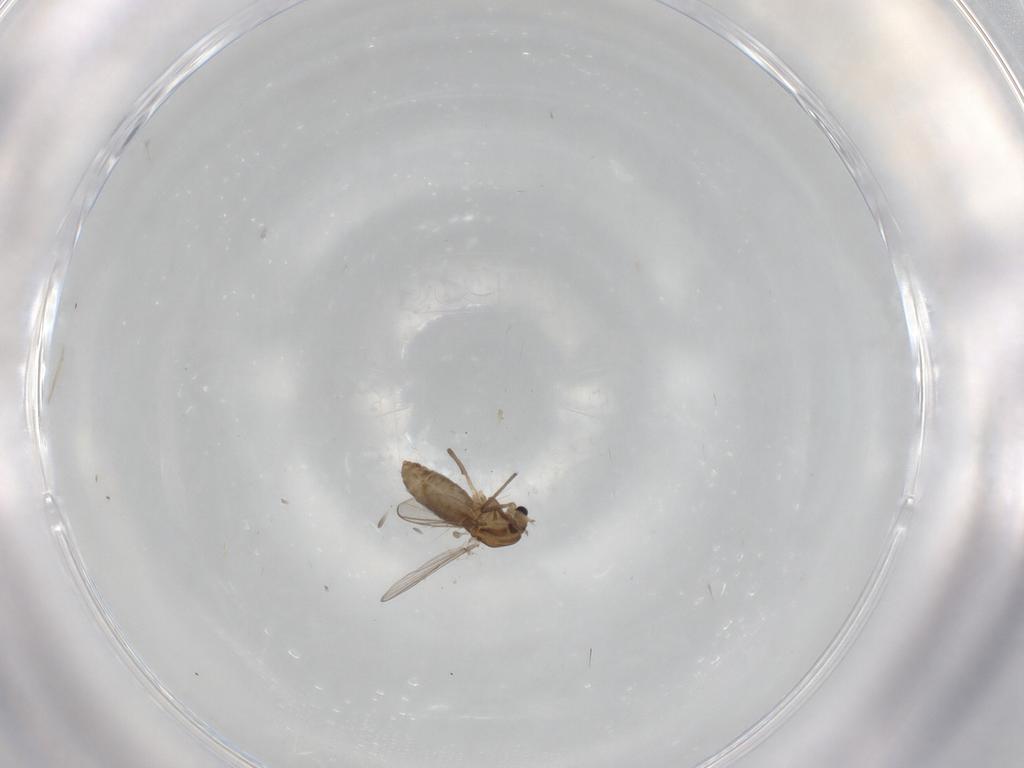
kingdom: Animalia
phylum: Arthropoda
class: Insecta
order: Diptera
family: Chironomidae
